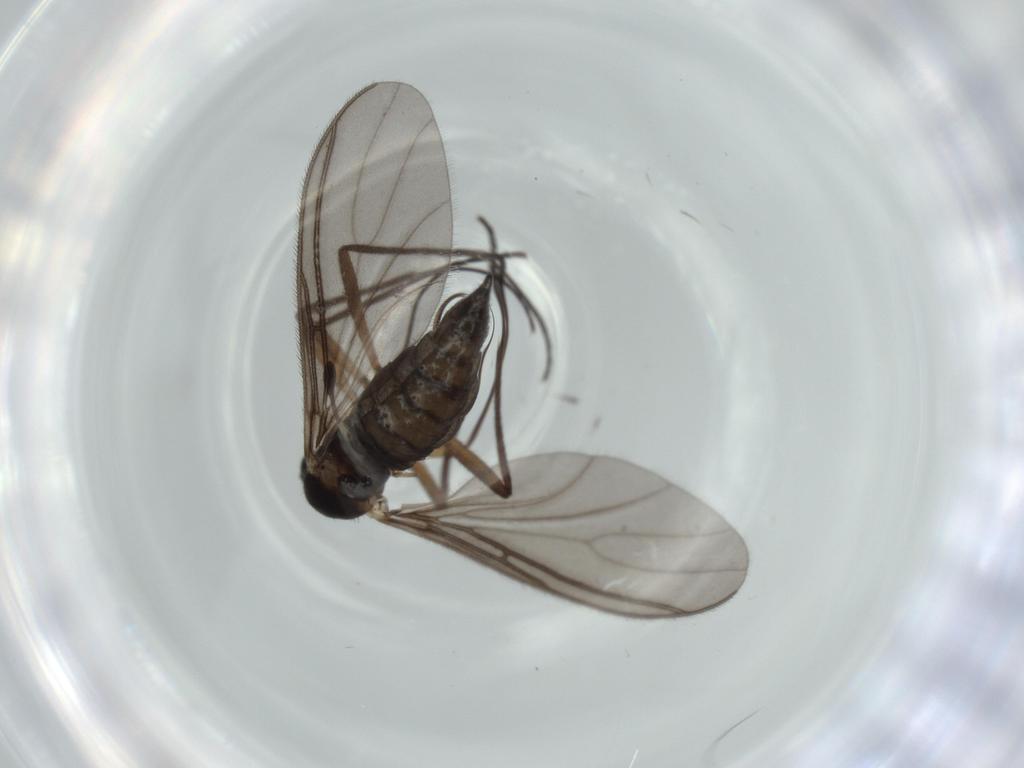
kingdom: Animalia
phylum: Arthropoda
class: Insecta
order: Diptera
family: Sciaridae
